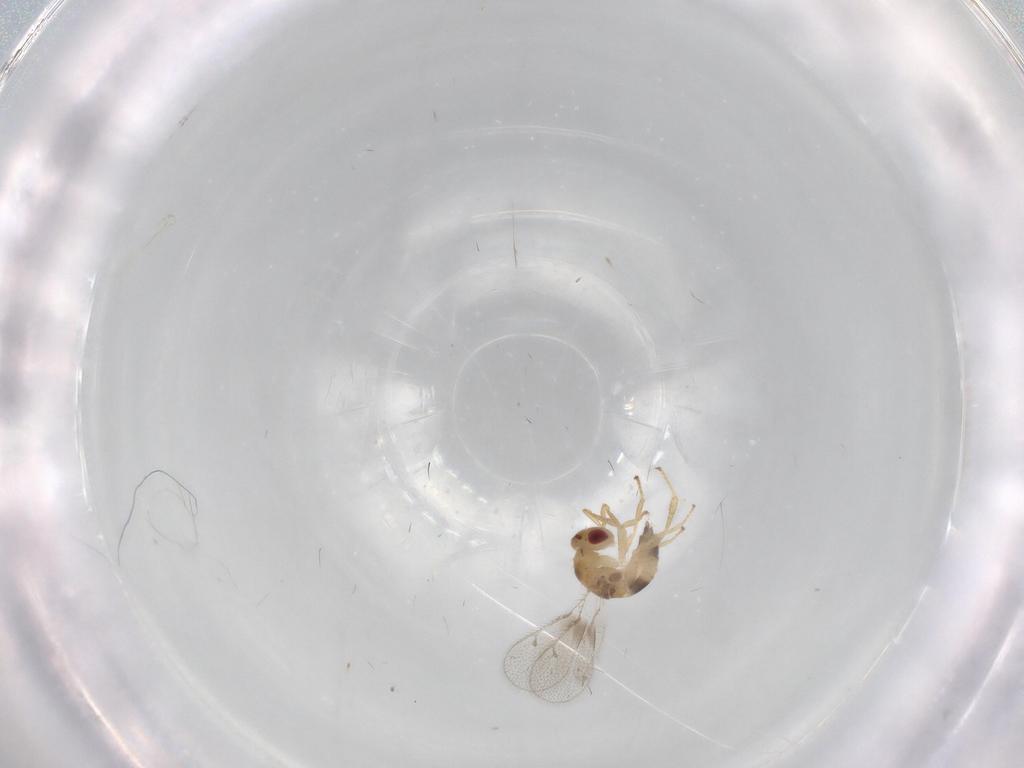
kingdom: Animalia
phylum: Arthropoda
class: Insecta
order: Hymenoptera
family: Torymidae
